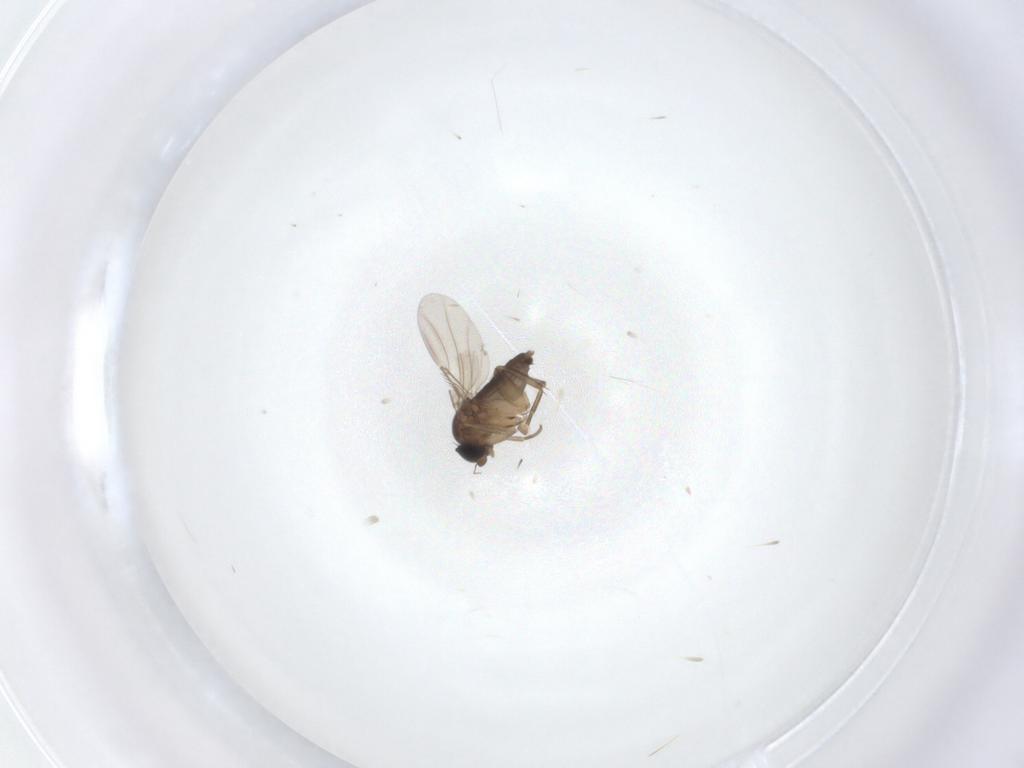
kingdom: Animalia
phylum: Arthropoda
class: Insecta
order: Diptera
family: Phoridae
